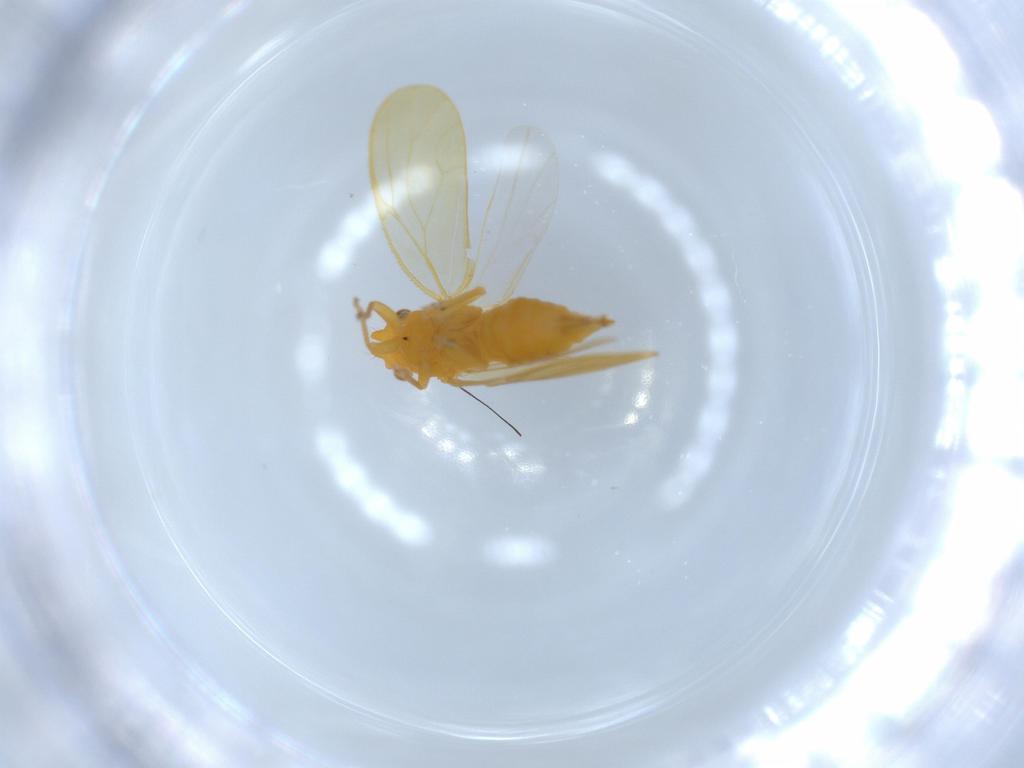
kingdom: Animalia
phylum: Arthropoda
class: Insecta
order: Hemiptera
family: Psyllidae
